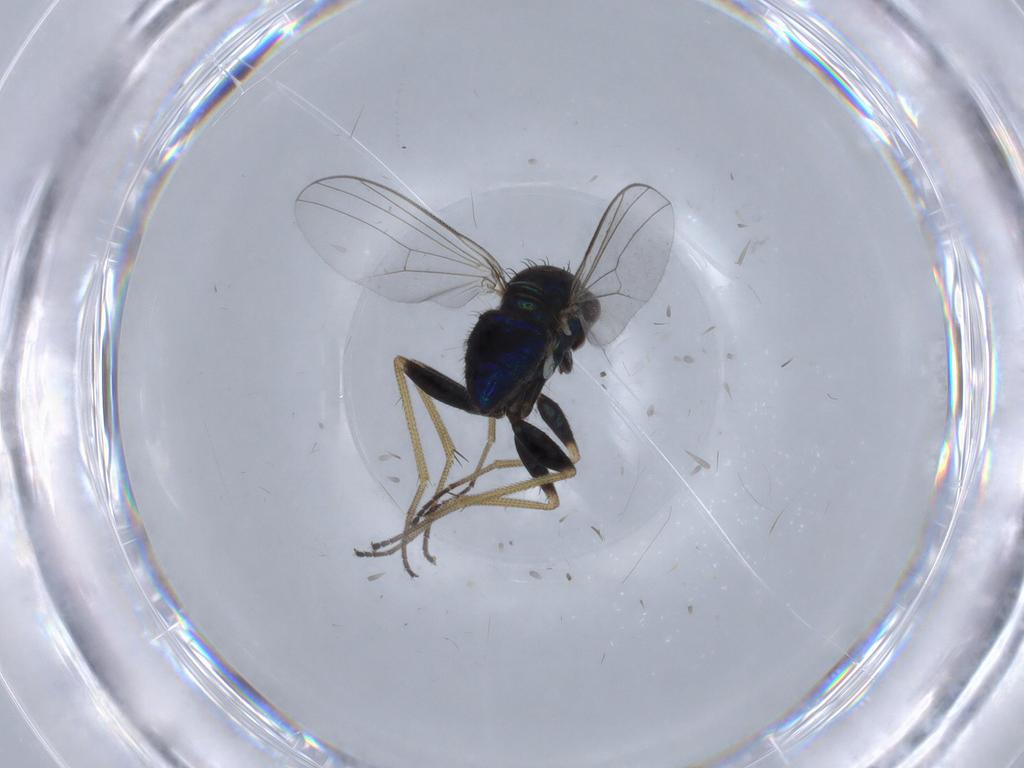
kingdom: Animalia
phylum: Arthropoda
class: Insecta
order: Diptera
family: Dolichopodidae
